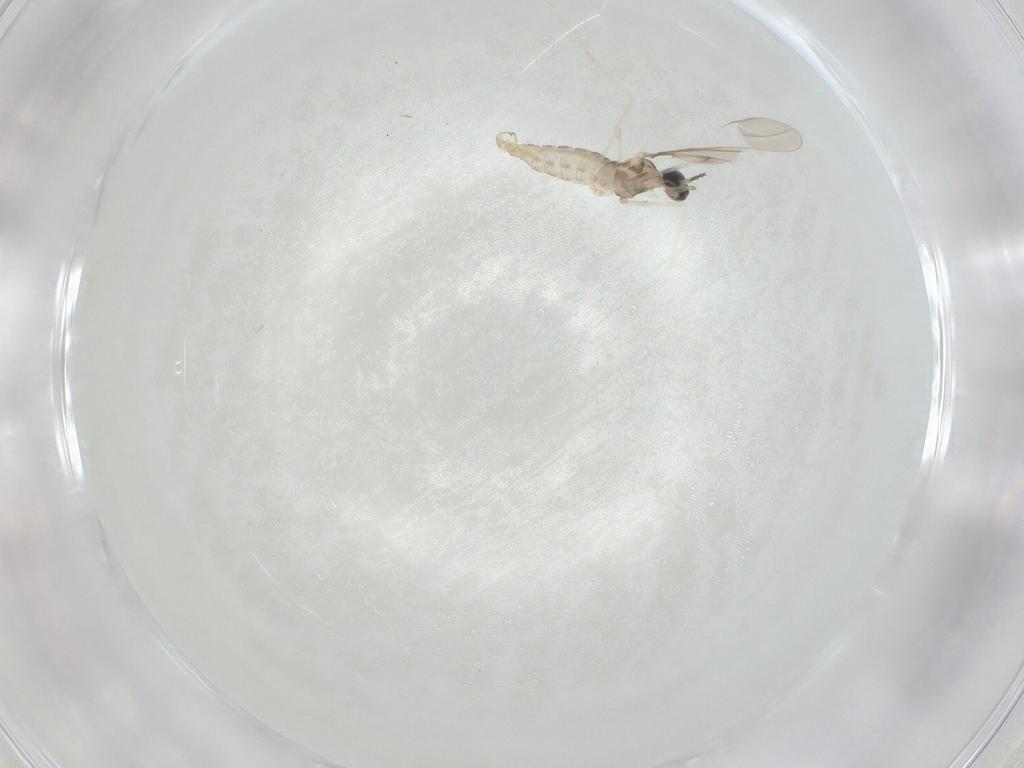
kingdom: Animalia
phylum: Arthropoda
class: Insecta
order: Diptera
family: Cecidomyiidae
